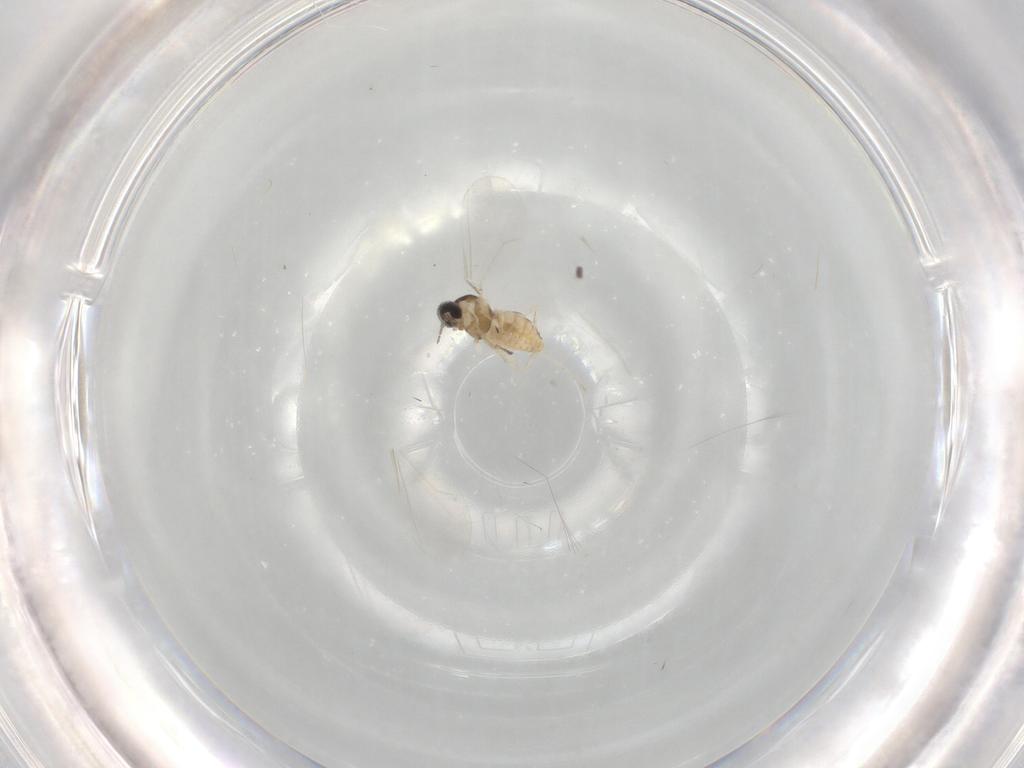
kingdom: Animalia
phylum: Arthropoda
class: Insecta
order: Diptera
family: Cecidomyiidae
